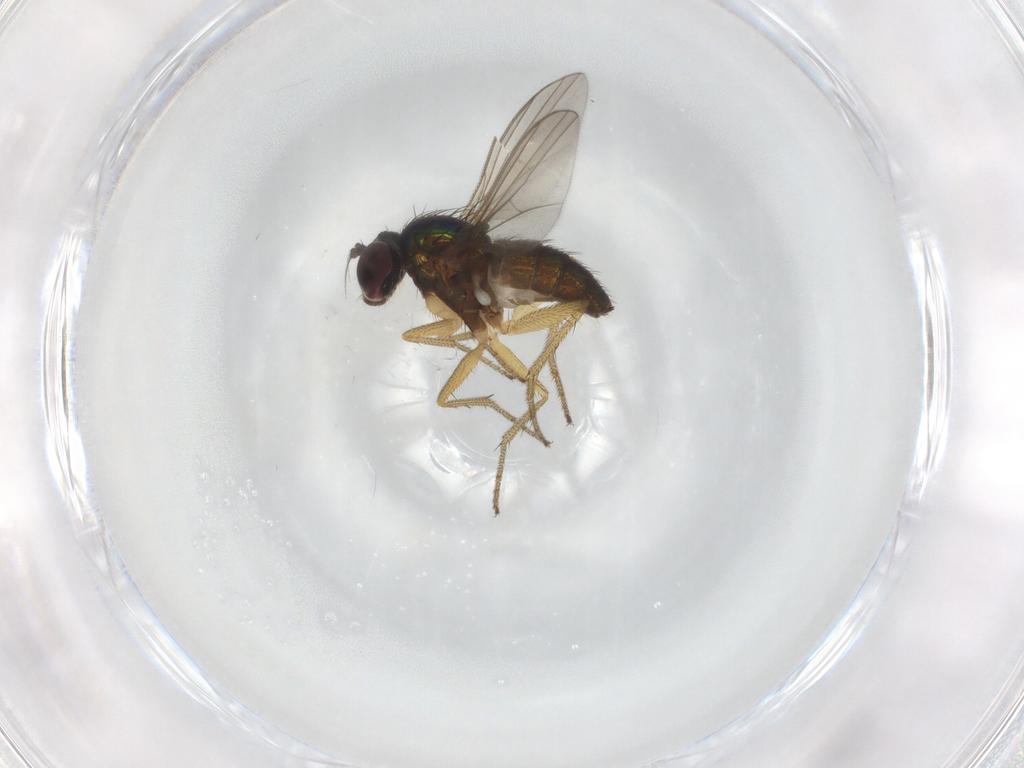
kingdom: Animalia
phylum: Arthropoda
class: Insecta
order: Diptera
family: Dolichopodidae
